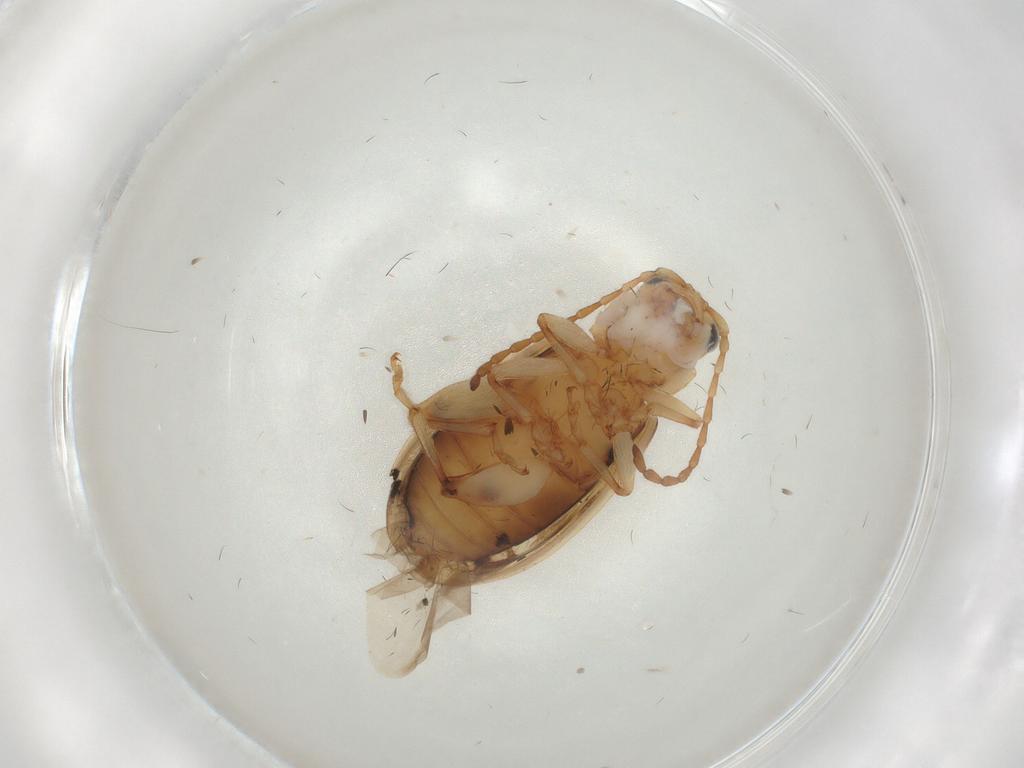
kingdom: Animalia
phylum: Arthropoda
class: Insecta
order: Coleoptera
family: Chrysomelidae
